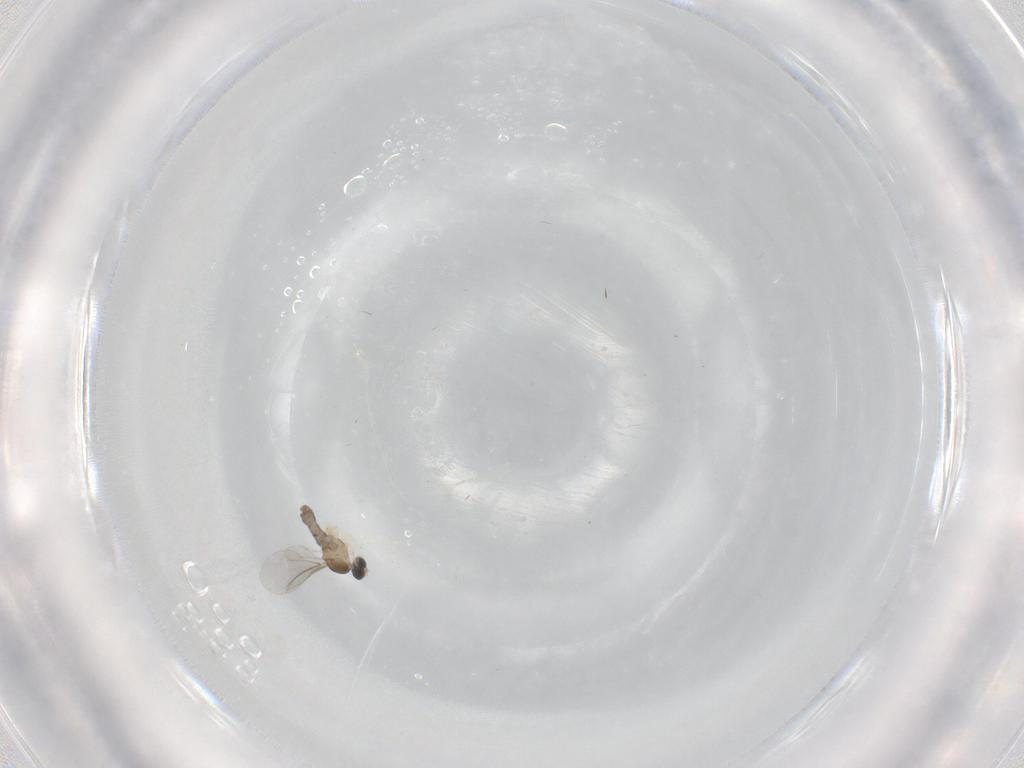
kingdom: Animalia
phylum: Arthropoda
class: Insecta
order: Diptera
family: Cecidomyiidae
